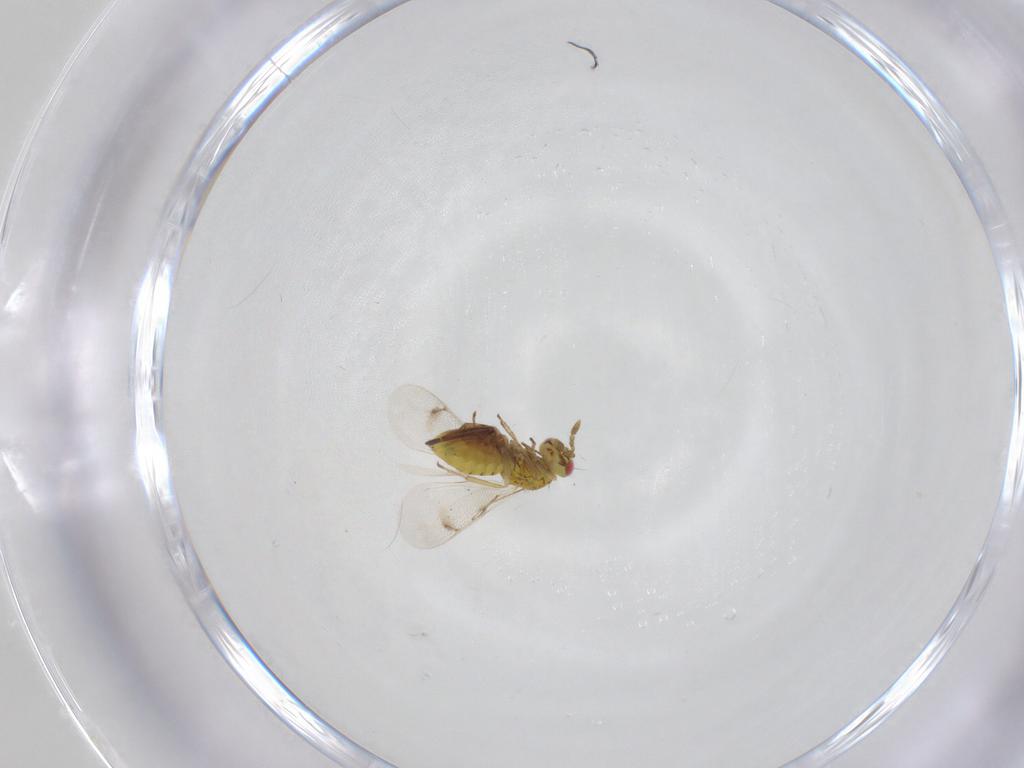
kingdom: Animalia
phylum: Arthropoda
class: Insecta
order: Hymenoptera
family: Eulophidae
